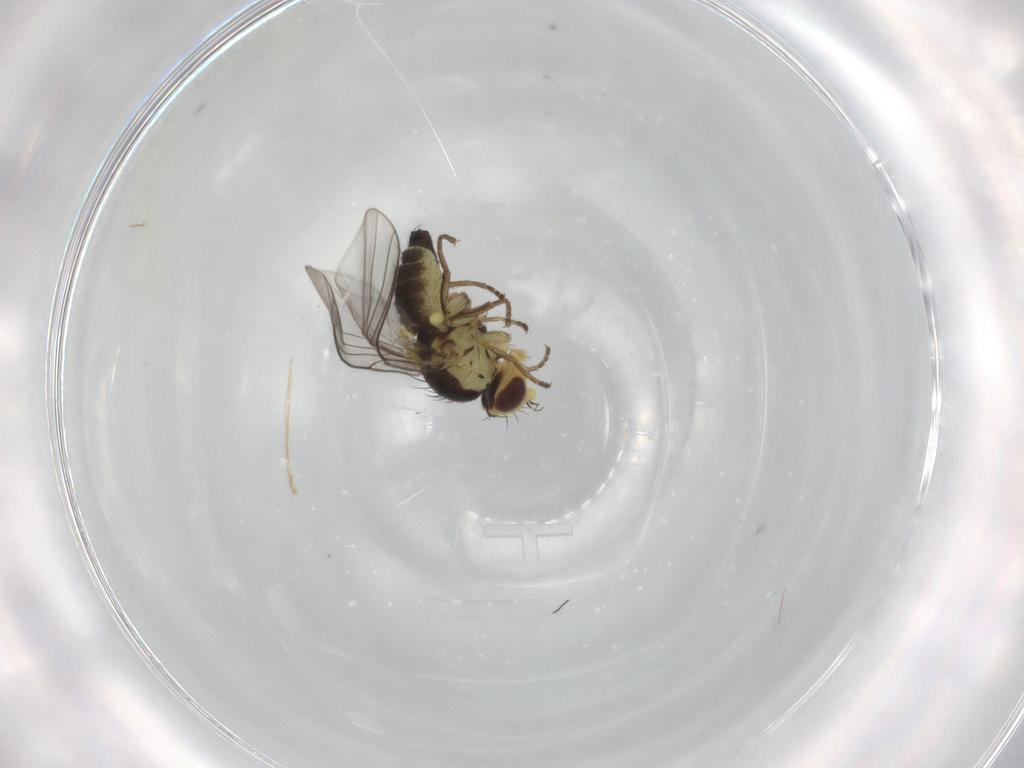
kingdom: Animalia
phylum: Arthropoda
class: Insecta
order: Diptera
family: Agromyzidae
